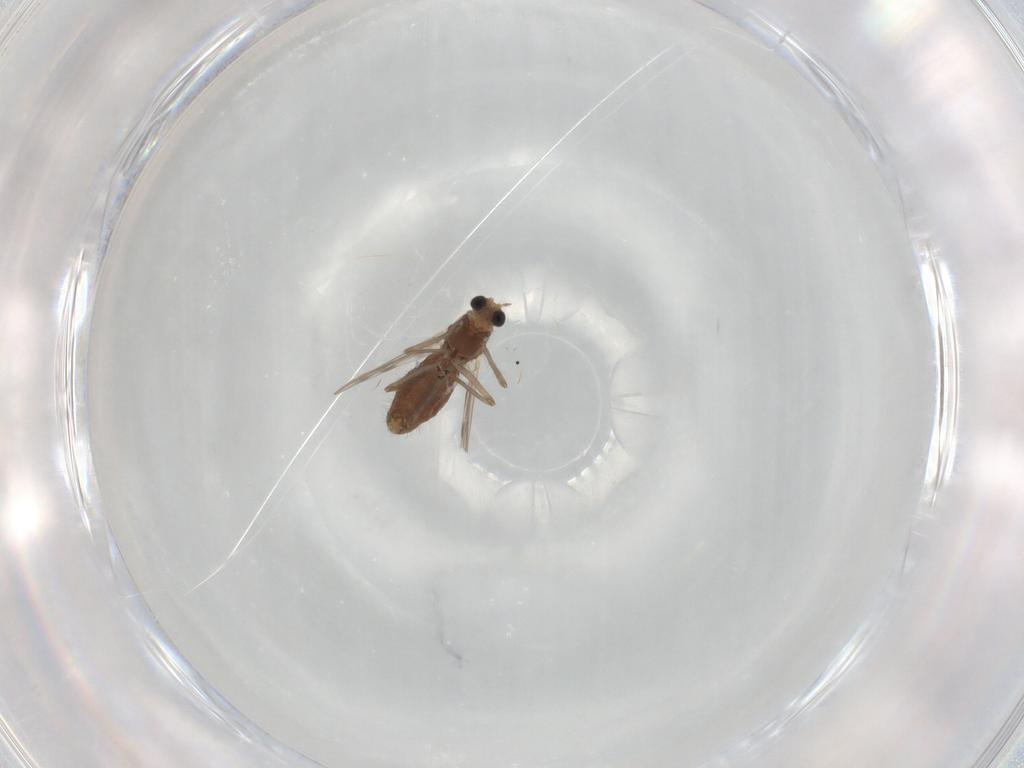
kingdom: Animalia
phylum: Arthropoda
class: Insecta
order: Diptera
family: Chironomidae
